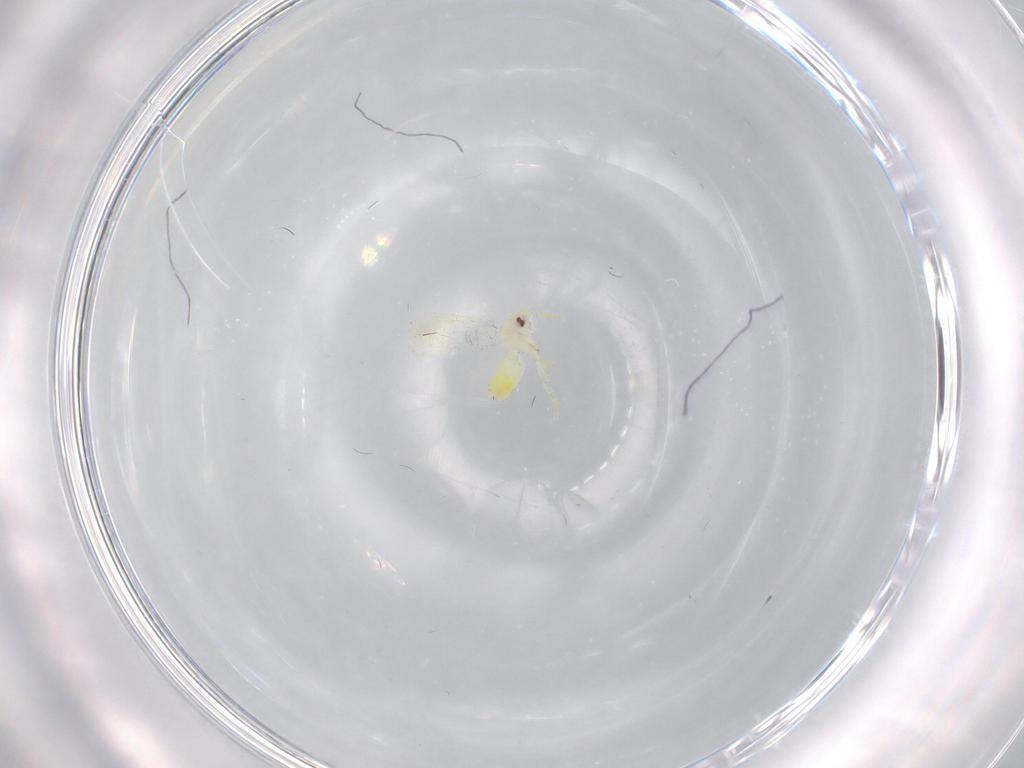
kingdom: Animalia
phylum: Arthropoda
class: Insecta
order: Hemiptera
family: Aleyrodidae
